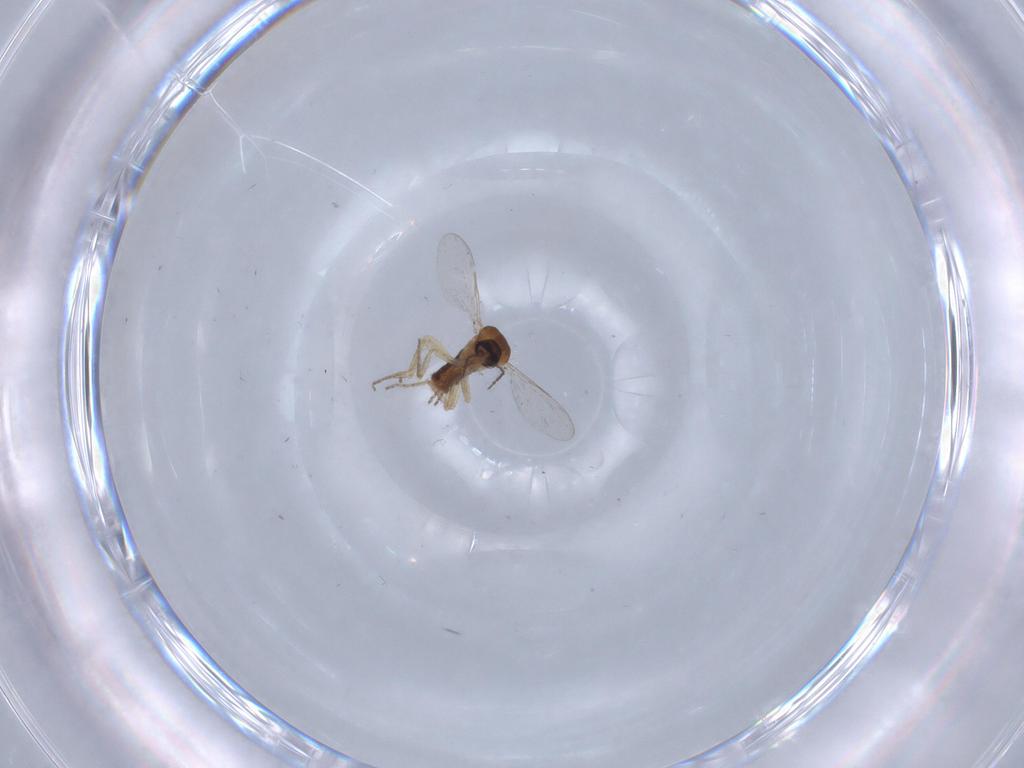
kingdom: Animalia
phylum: Arthropoda
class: Insecta
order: Diptera
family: Ceratopogonidae
